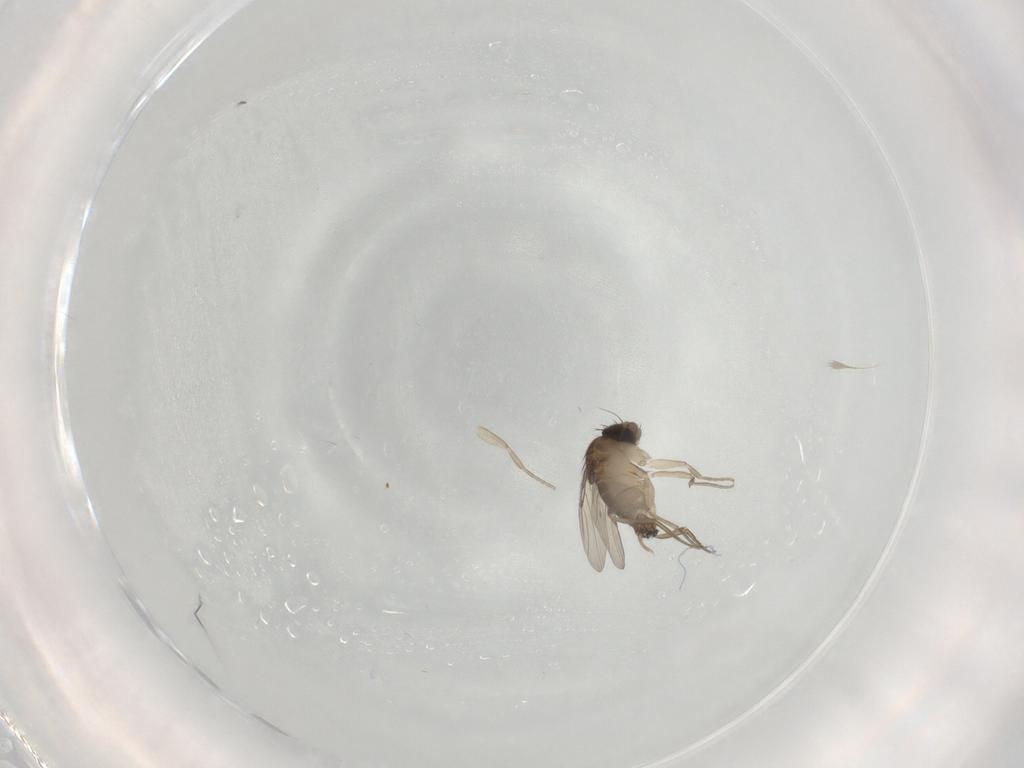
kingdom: Animalia
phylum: Arthropoda
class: Insecta
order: Diptera
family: Phoridae
